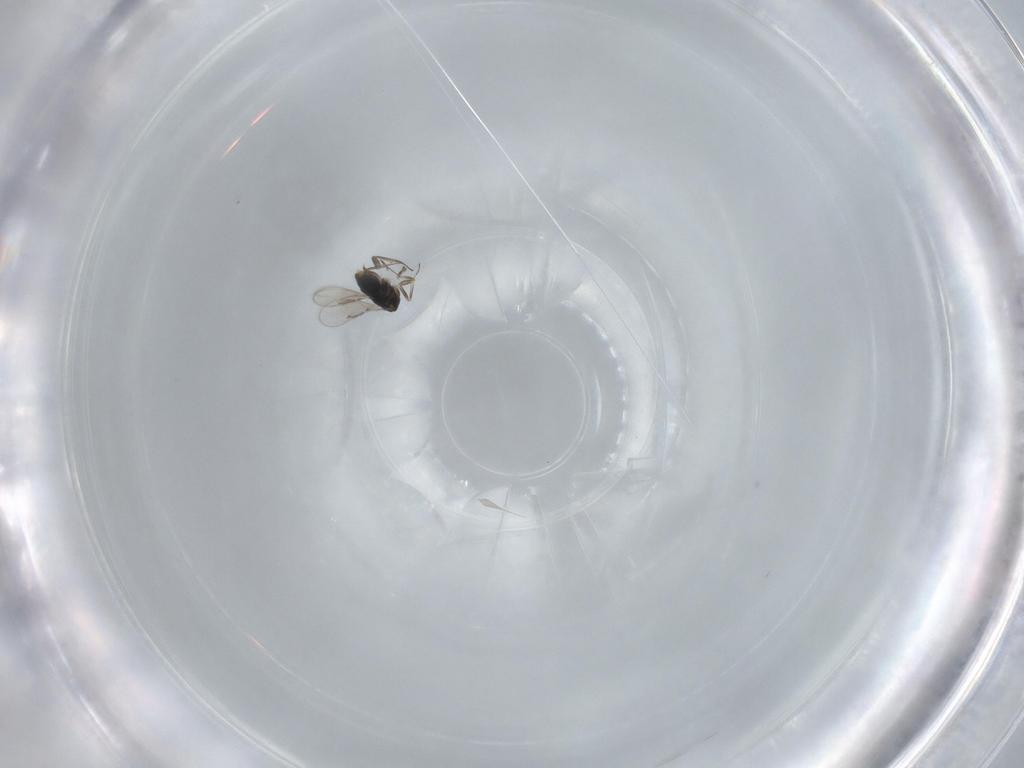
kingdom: Animalia
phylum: Arthropoda
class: Insecta
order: Hymenoptera
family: Azotidae
